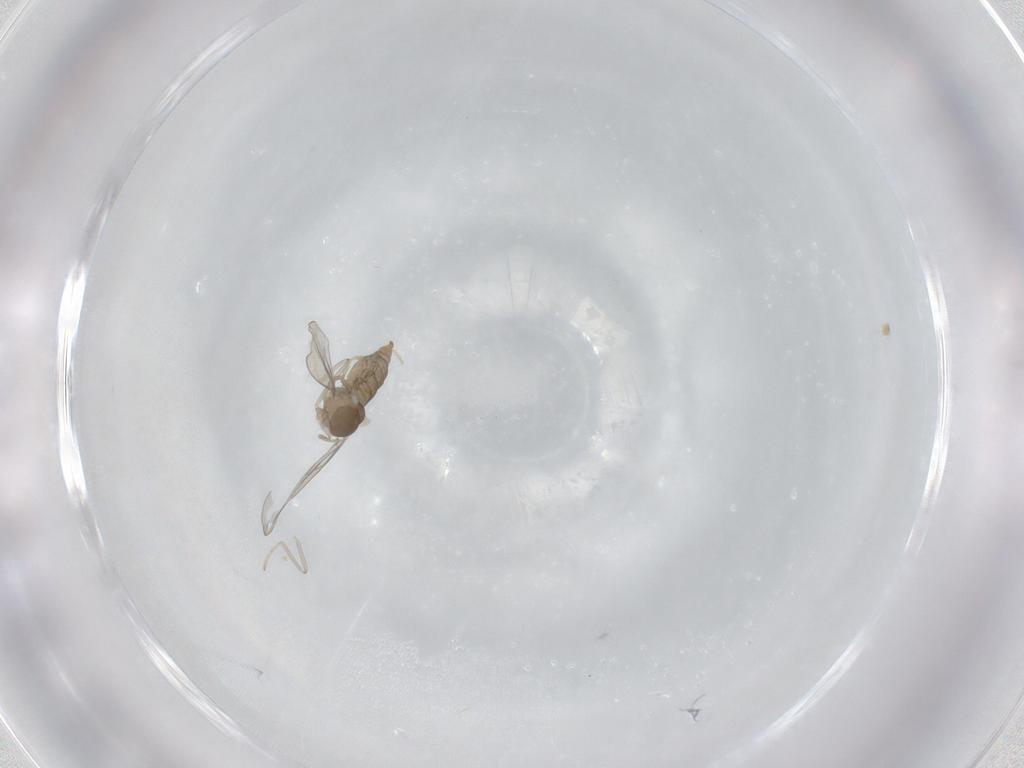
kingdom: Animalia
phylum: Arthropoda
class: Insecta
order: Diptera
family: Cecidomyiidae
